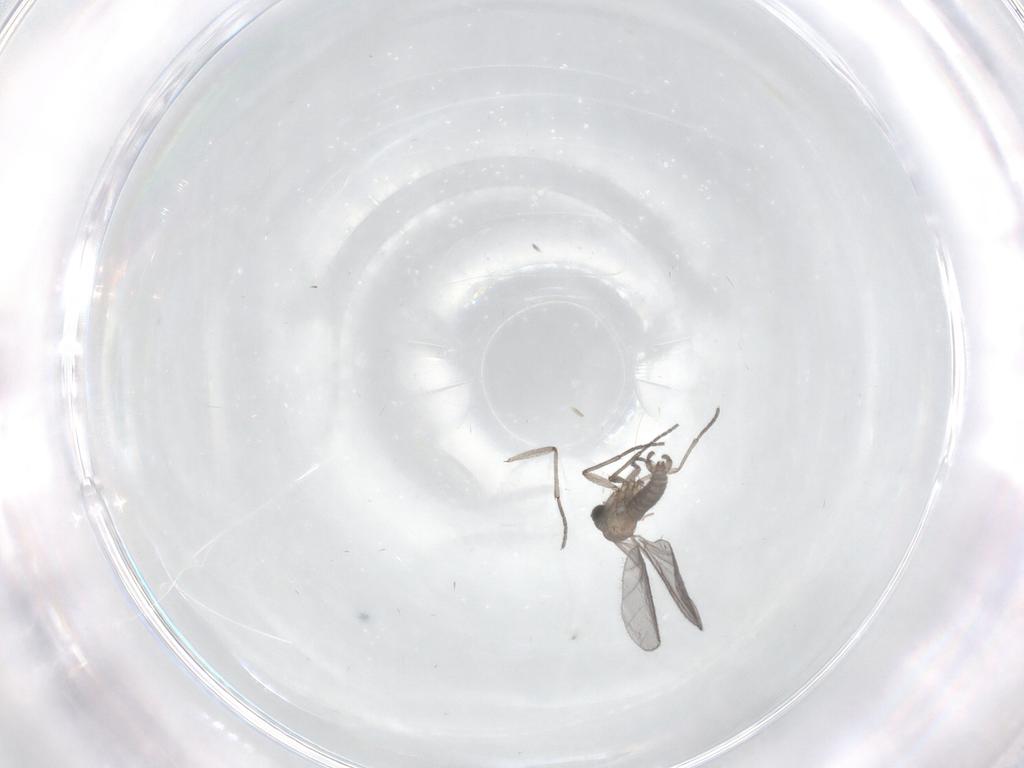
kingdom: Animalia
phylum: Arthropoda
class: Insecta
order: Diptera
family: Sciaridae
